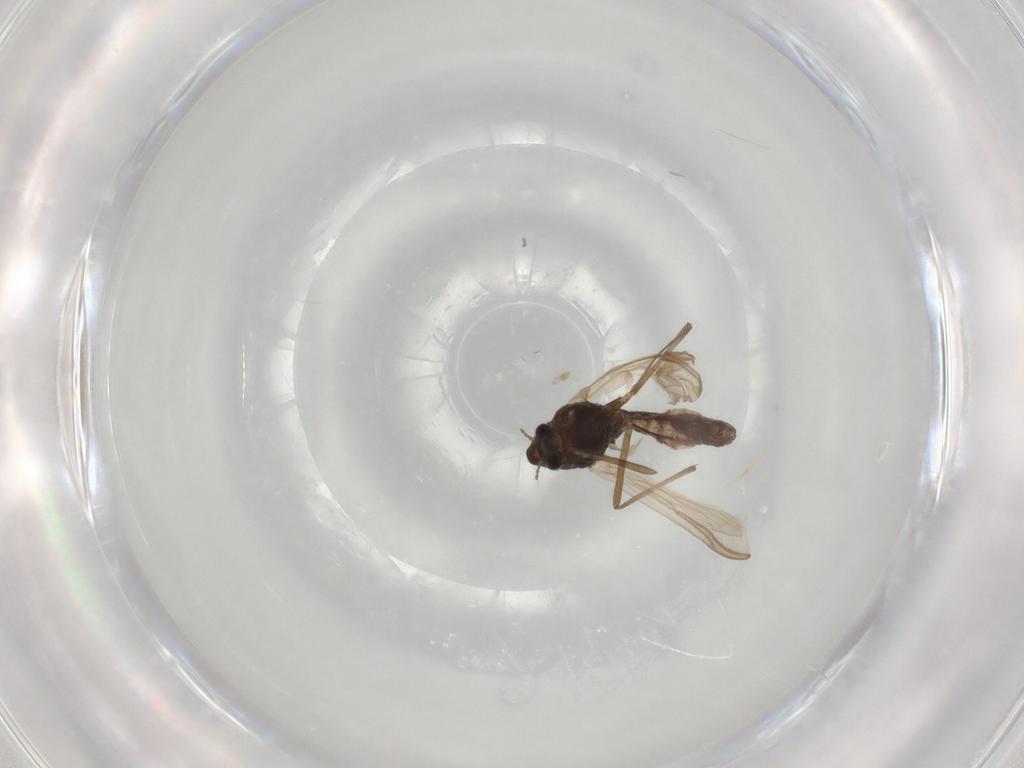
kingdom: Animalia
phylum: Arthropoda
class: Insecta
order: Diptera
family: Chironomidae
